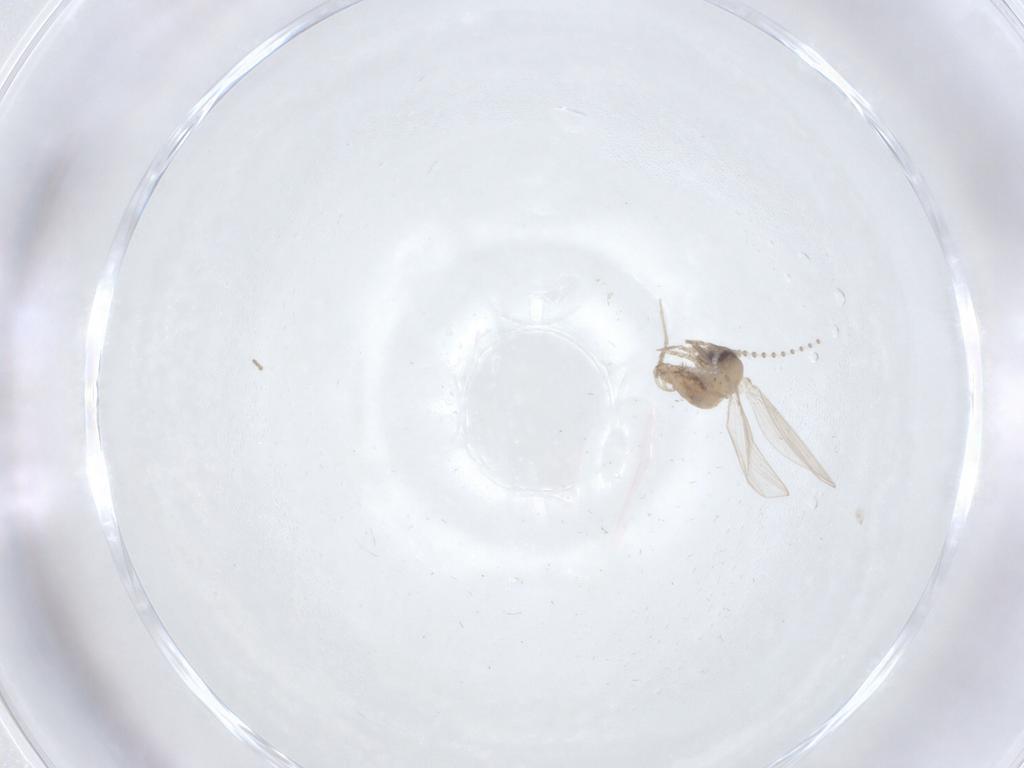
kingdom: Animalia
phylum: Arthropoda
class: Insecta
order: Diptera
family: Psychodidae
